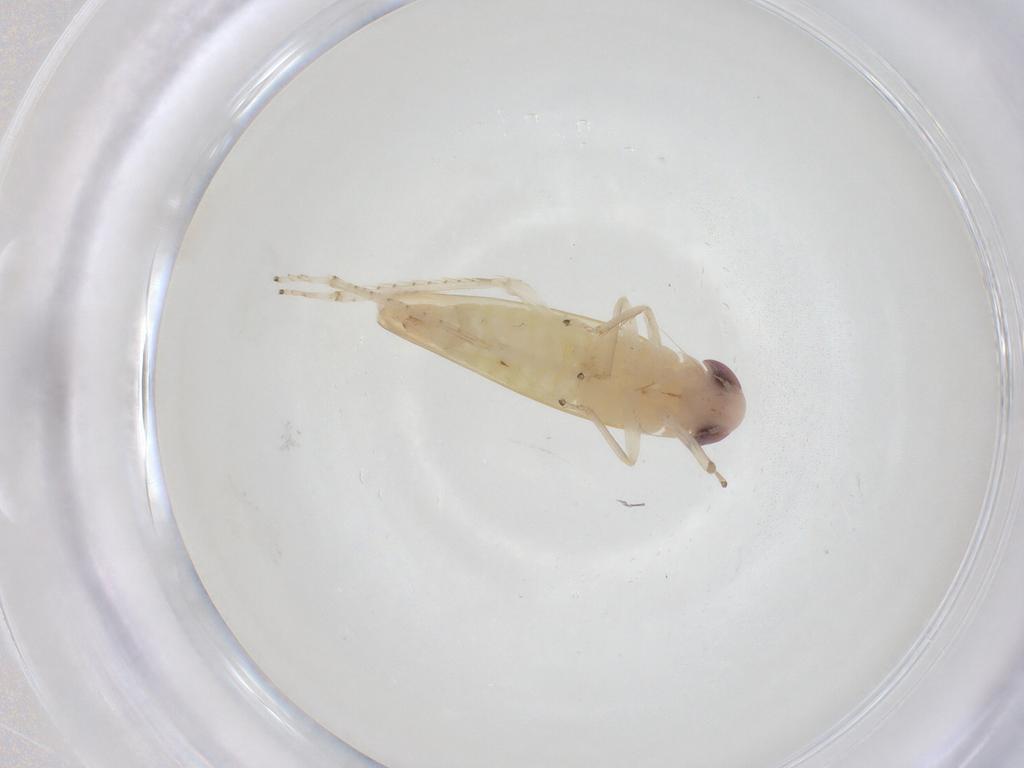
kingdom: Animalia
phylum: Arthropoda
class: Insecta
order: Hemiptera
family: Cicadellidae
